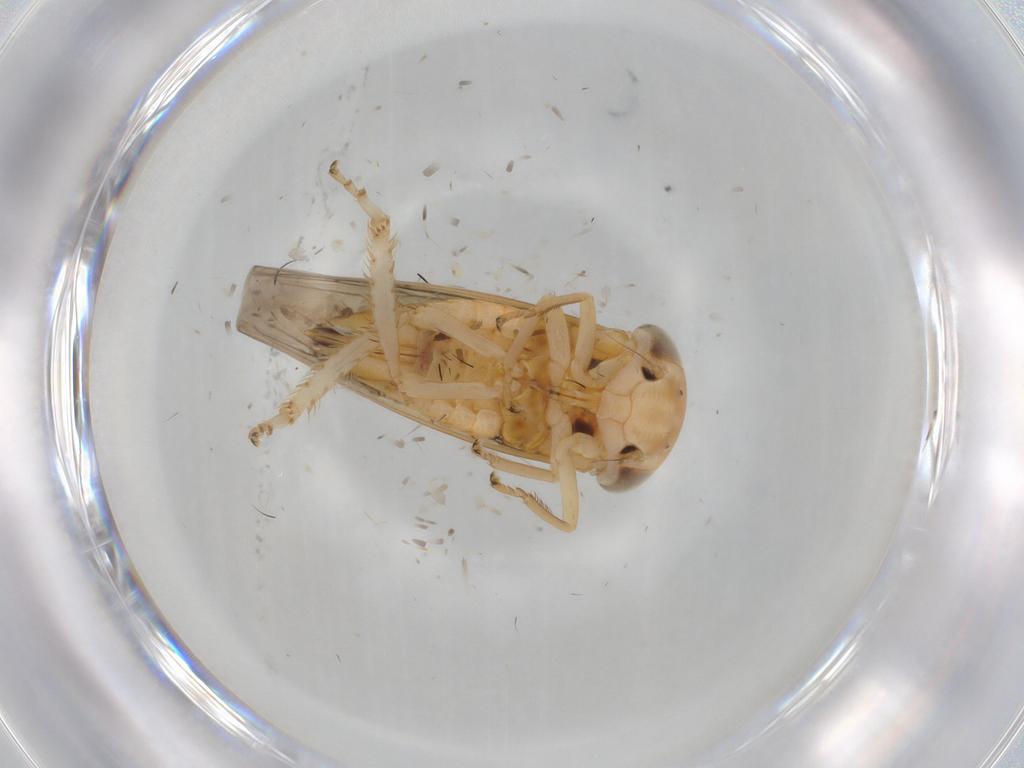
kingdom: Animalia
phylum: Arthropoda
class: Insecta
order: Hemiptera
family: Cicadellidae
